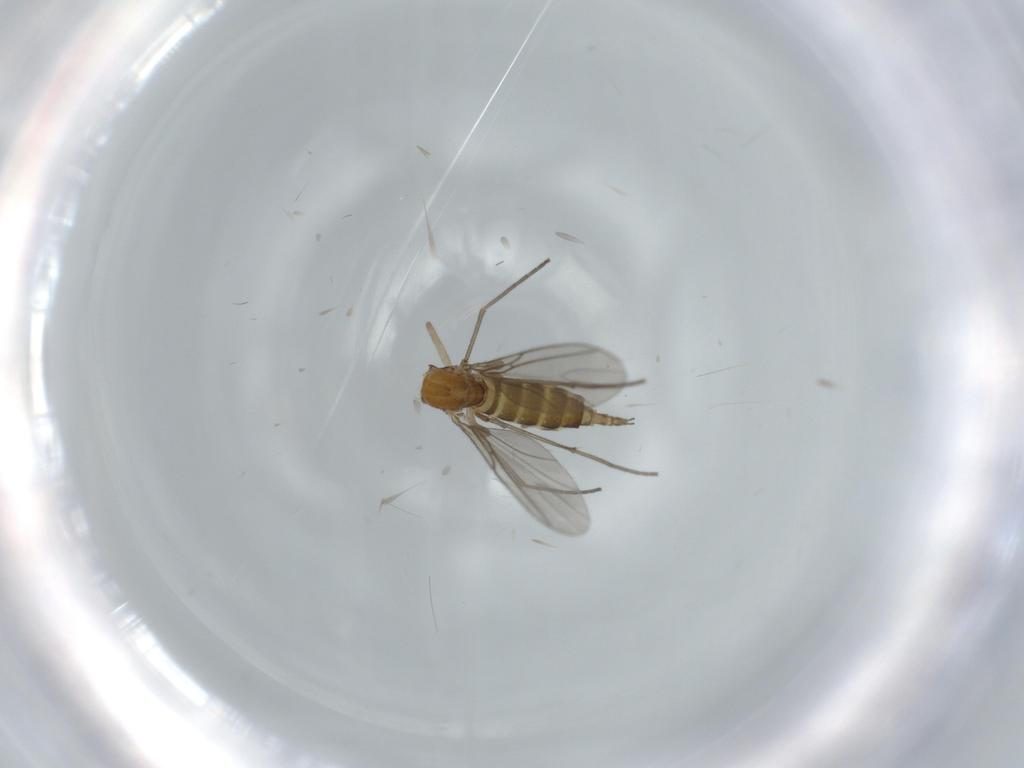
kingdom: Animalia
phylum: Arthropoda
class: Insecta
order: Diptera
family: Sciaridae
